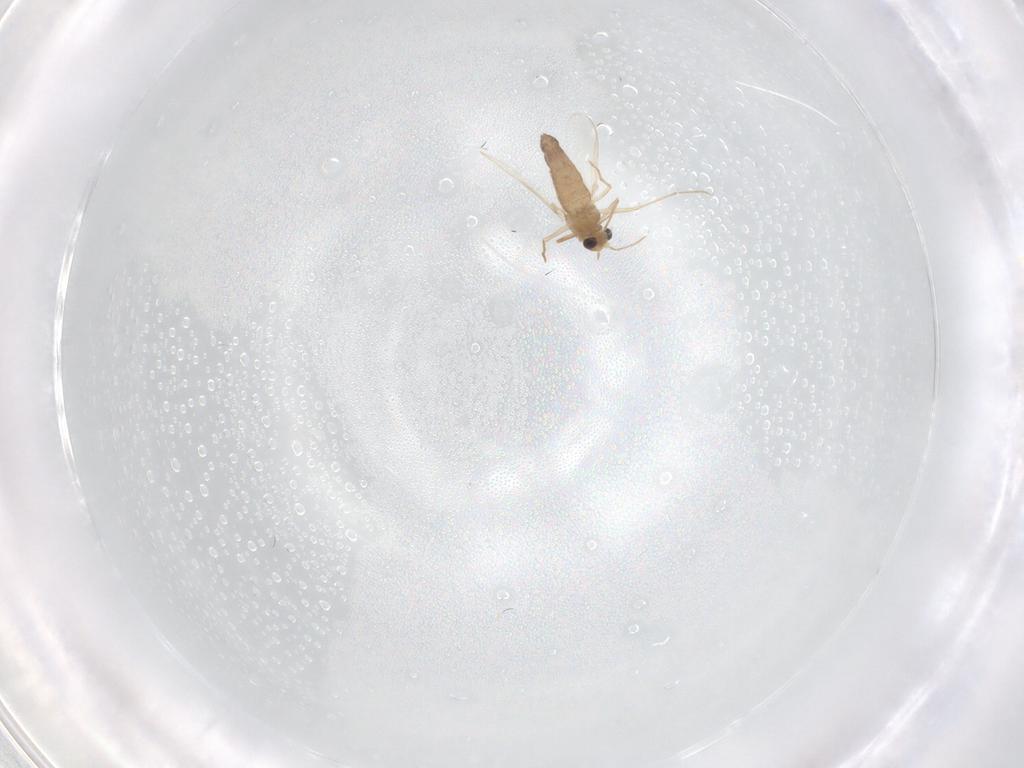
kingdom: Animalia
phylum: Arthropoda
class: Insecta
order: Diptera
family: Chironomidae
